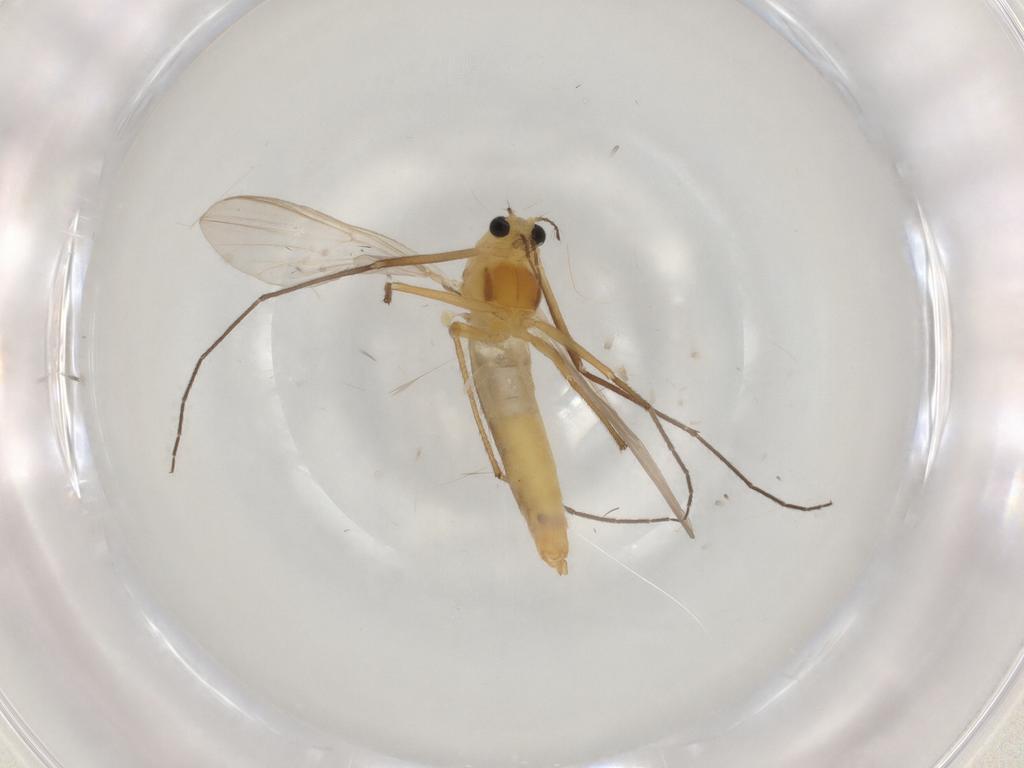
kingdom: Animalia
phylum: Arthropoda
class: Insecta
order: Diptera
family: Chironomidae
